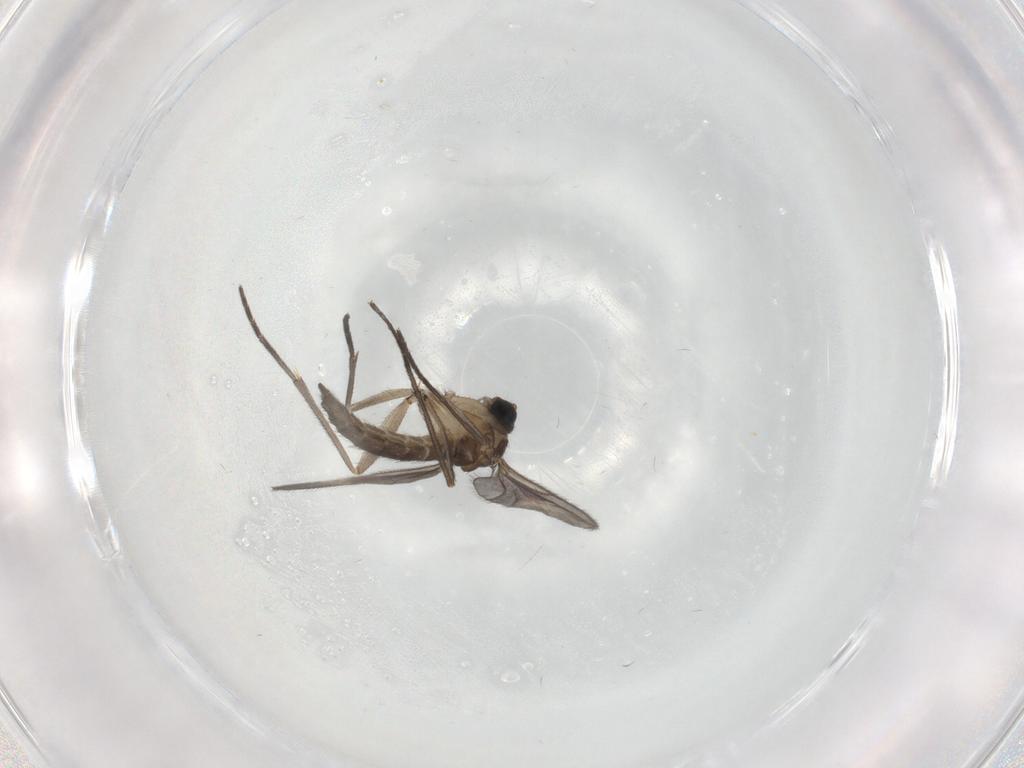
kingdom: Animalia
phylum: Arthropoda
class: Insecta
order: Diptera
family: Sciaridae
